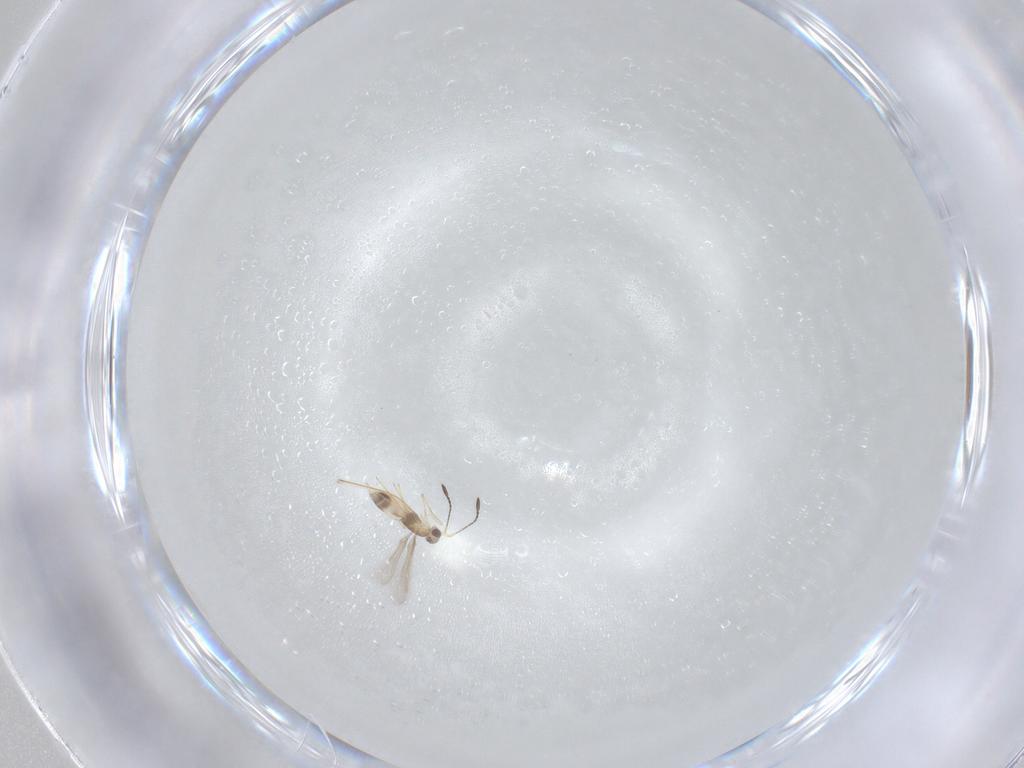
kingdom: Animalia
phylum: Arthropoda
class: Insecta
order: Hymenoptera
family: Mymaridae
